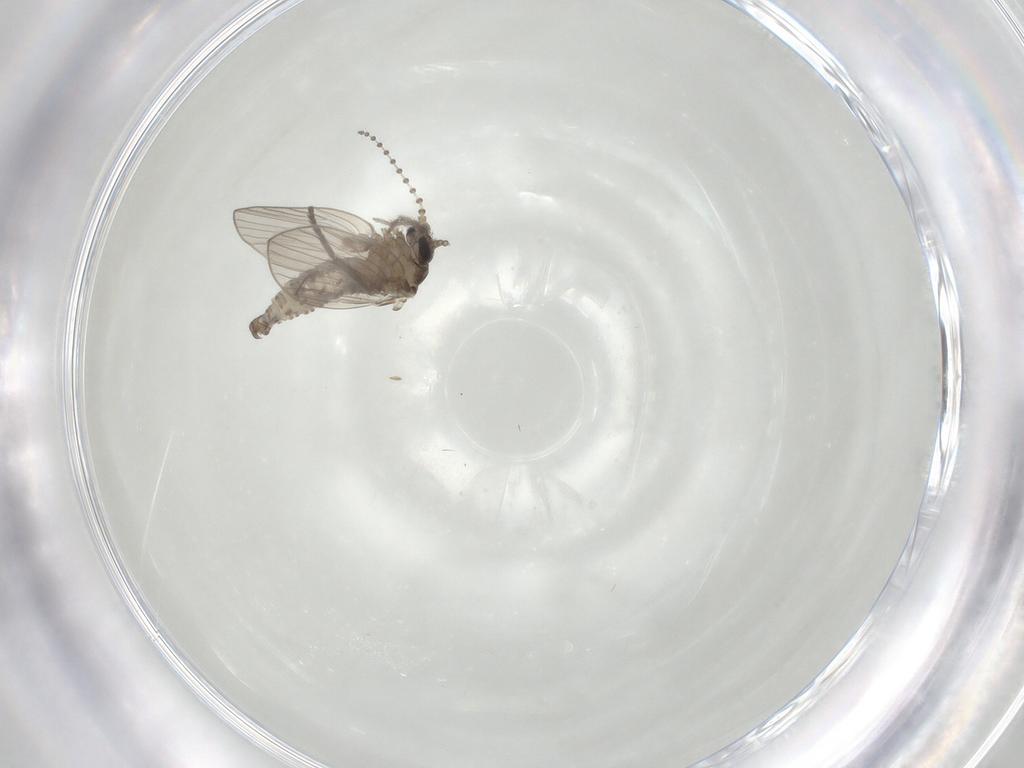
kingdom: Animalia
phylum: Arthropoda
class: Insecta
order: Diptera
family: Psychodidae
